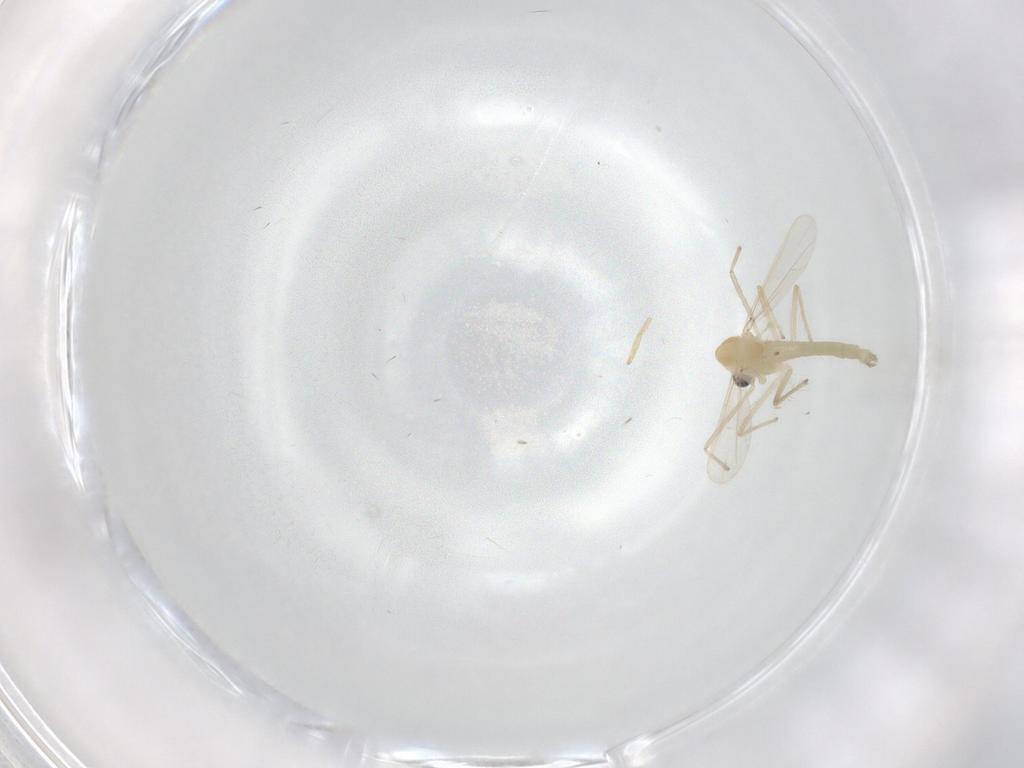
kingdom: Animalia
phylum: Arthropoda
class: Insecta
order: Diptera
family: Chironomidae
